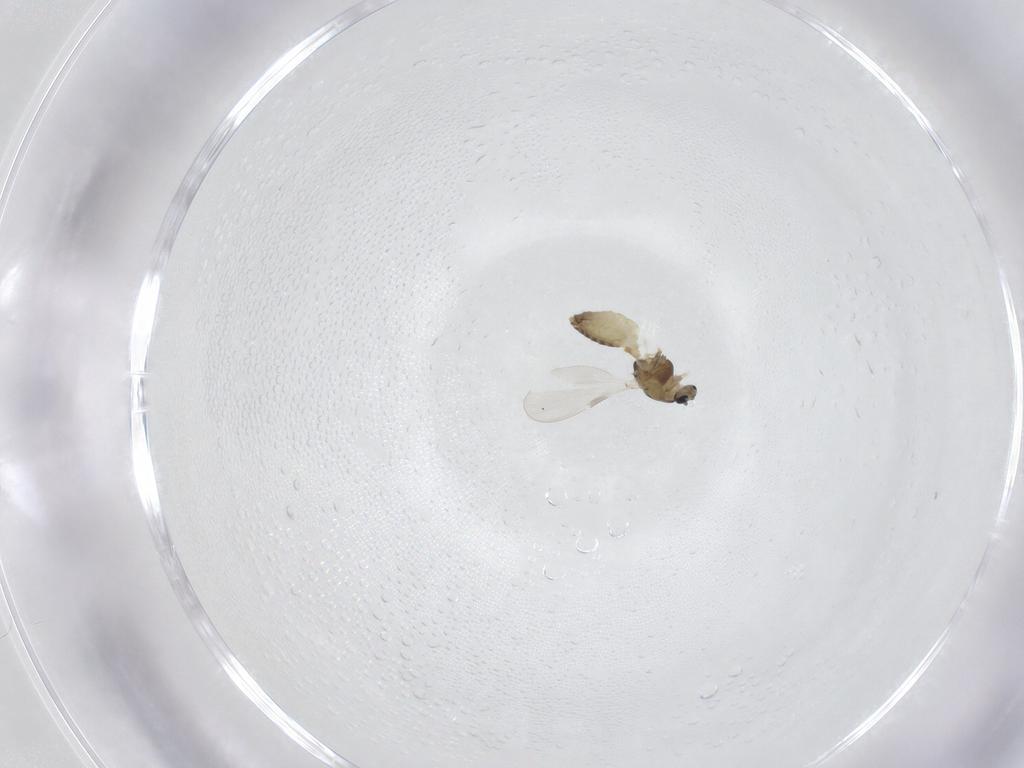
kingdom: Animalia
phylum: Arthropoda
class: Insecta
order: Diptera
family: Chironomidae
